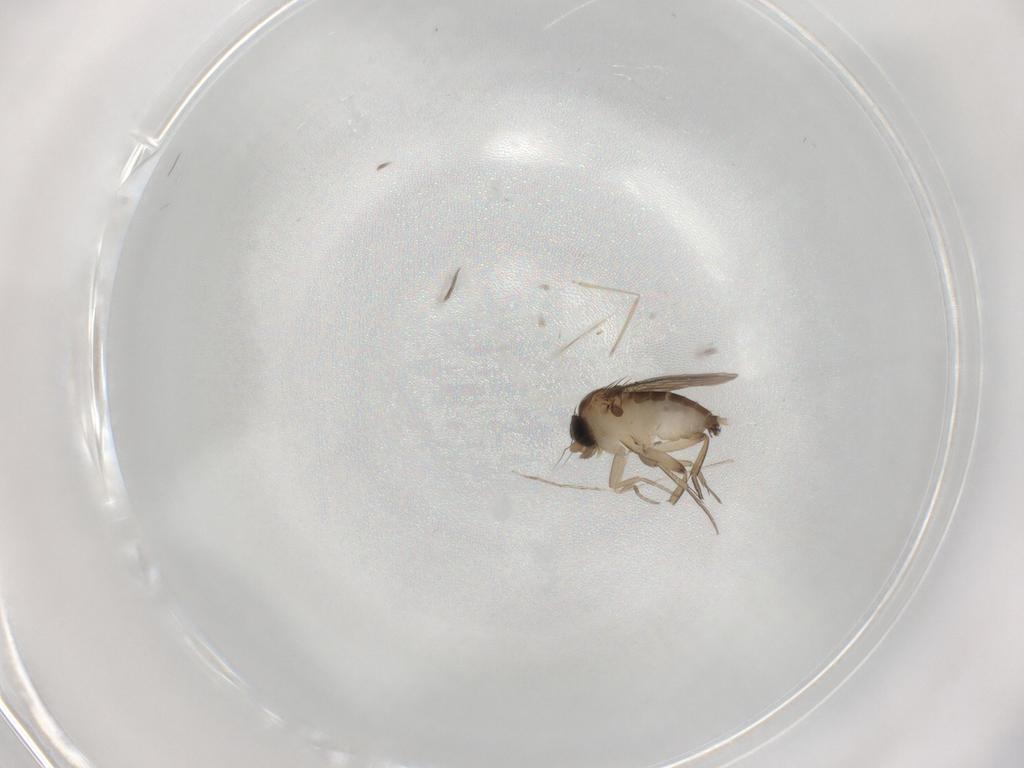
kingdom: Animalia
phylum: Arthropoda
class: Insecta
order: Diptera
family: Phoridae
